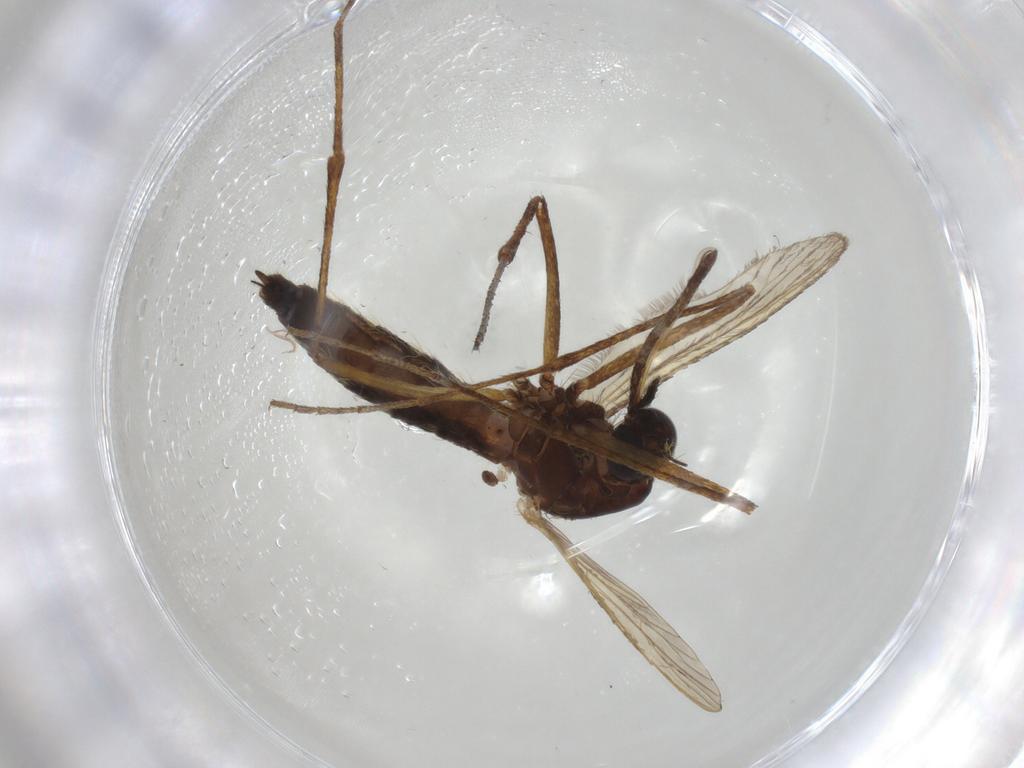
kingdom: Animalia
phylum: Arthropoda
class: Insecta
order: Diptera
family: Chironomidae
